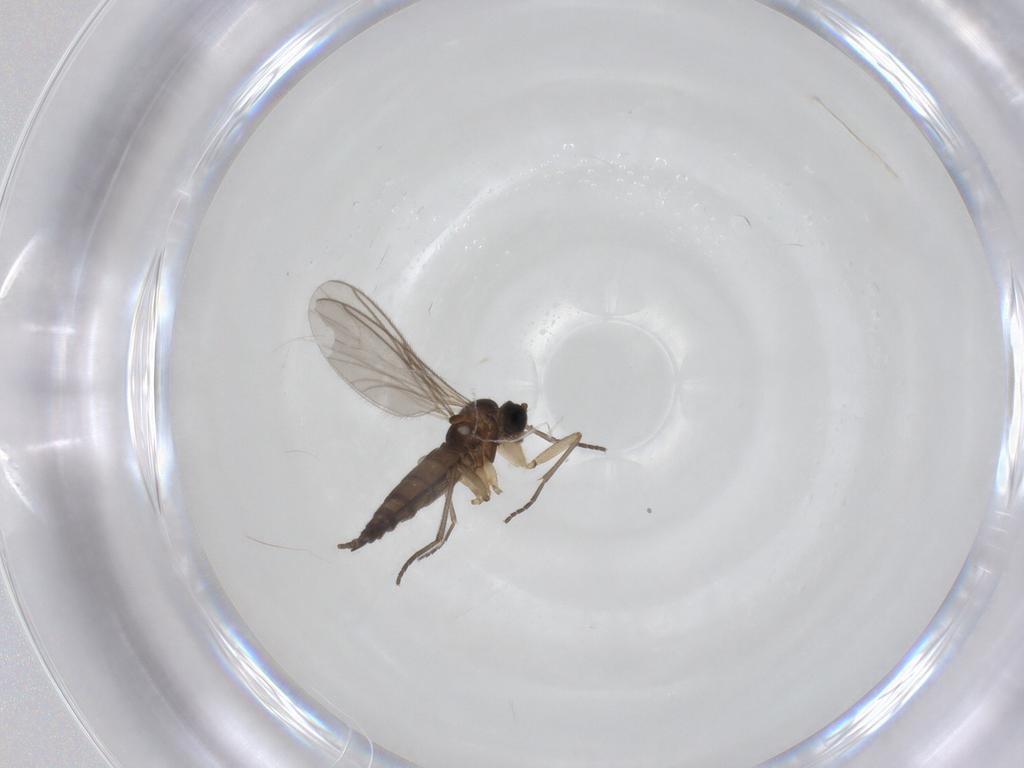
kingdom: Animalia
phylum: Arthropoda
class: Insecta
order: Diptera
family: Sciaridae
